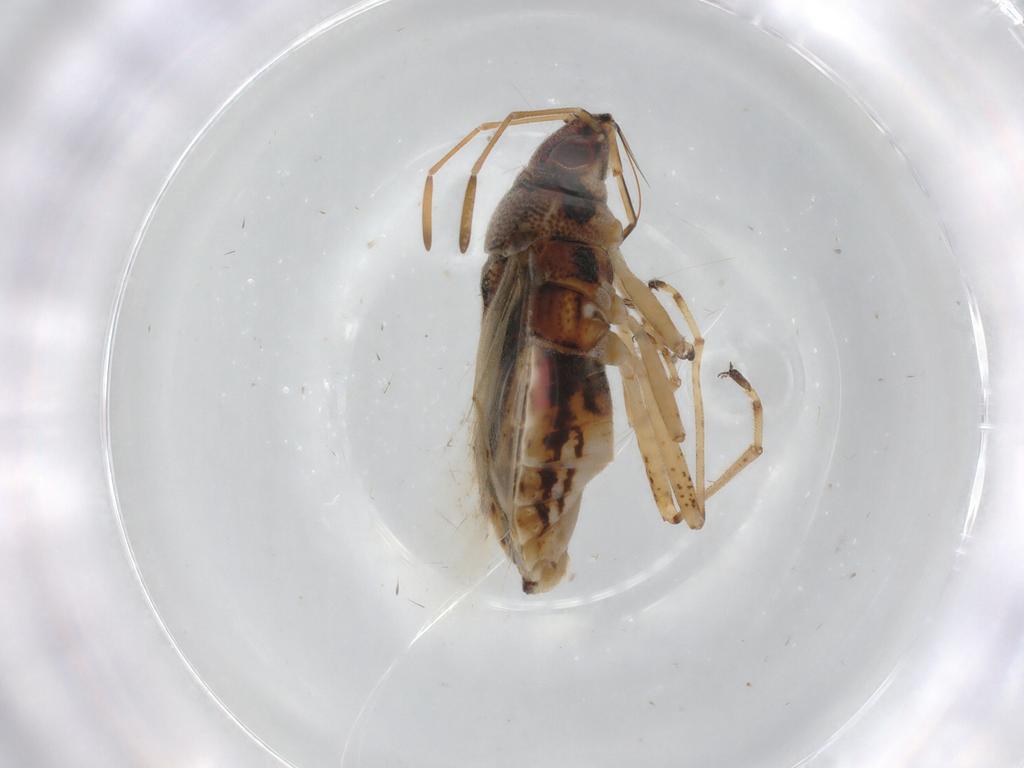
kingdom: Animalia
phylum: Arthropoda
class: Insecta
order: Hemiptera
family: Lygaeidae
